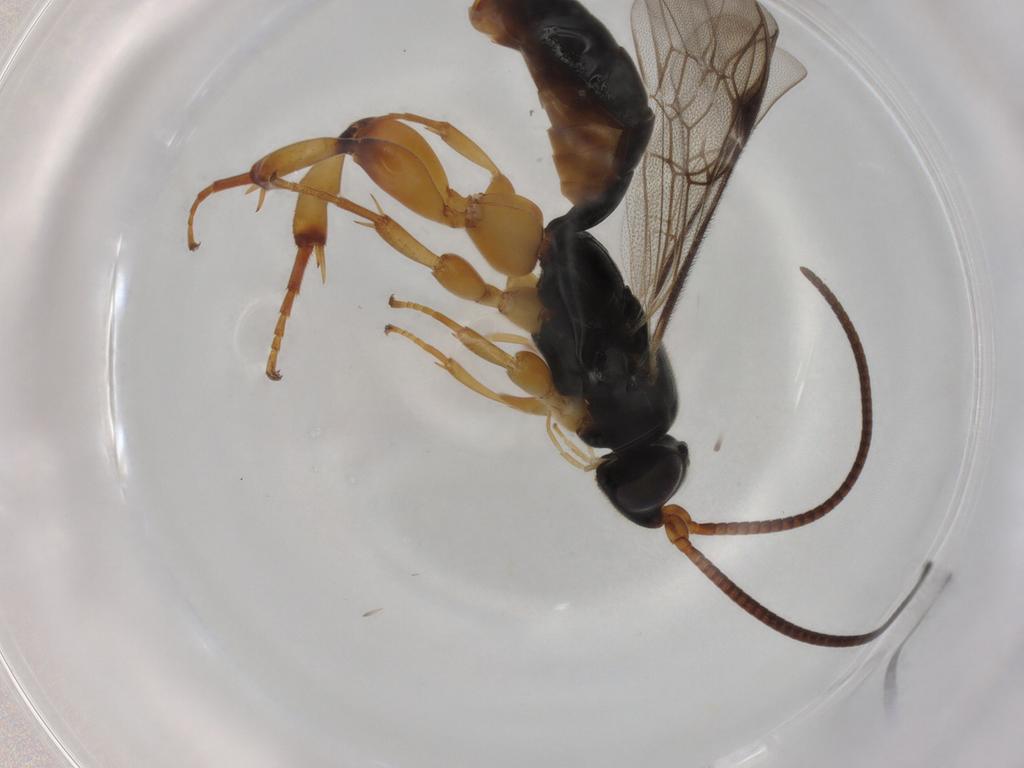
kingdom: Animalia
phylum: Arthropoda
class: Insecta
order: Hymenoptera
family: Ichneumonidae
